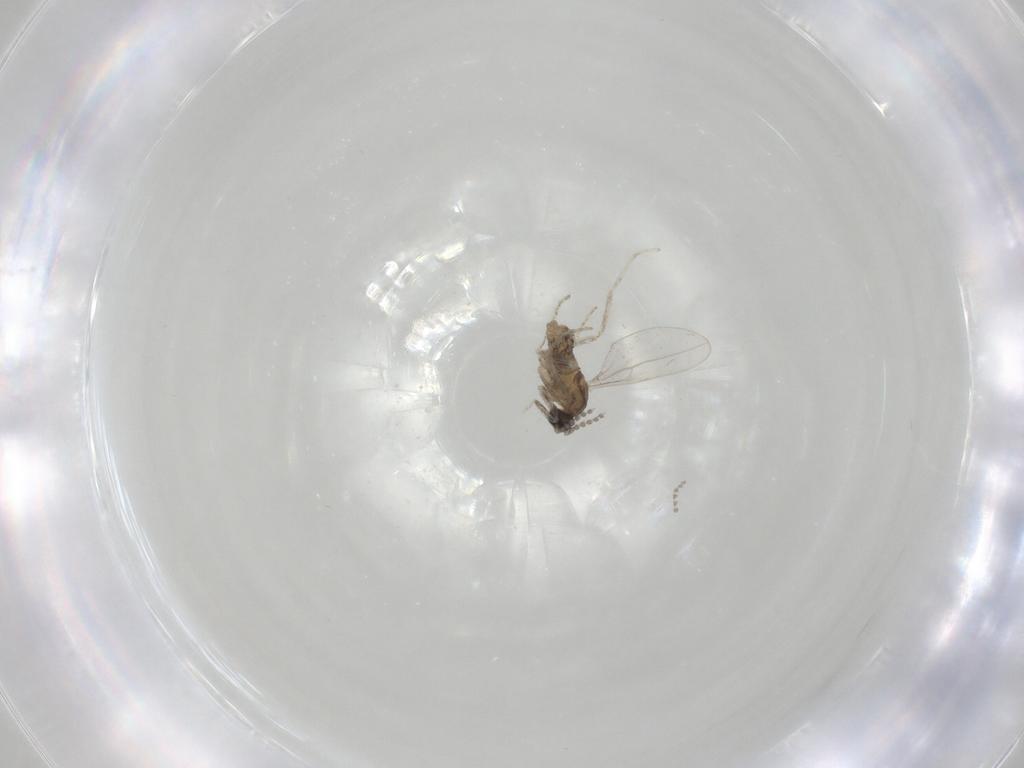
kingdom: Animalia
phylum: Arthropoda
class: Insecta
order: Diptera
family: Cecidomyiidae
